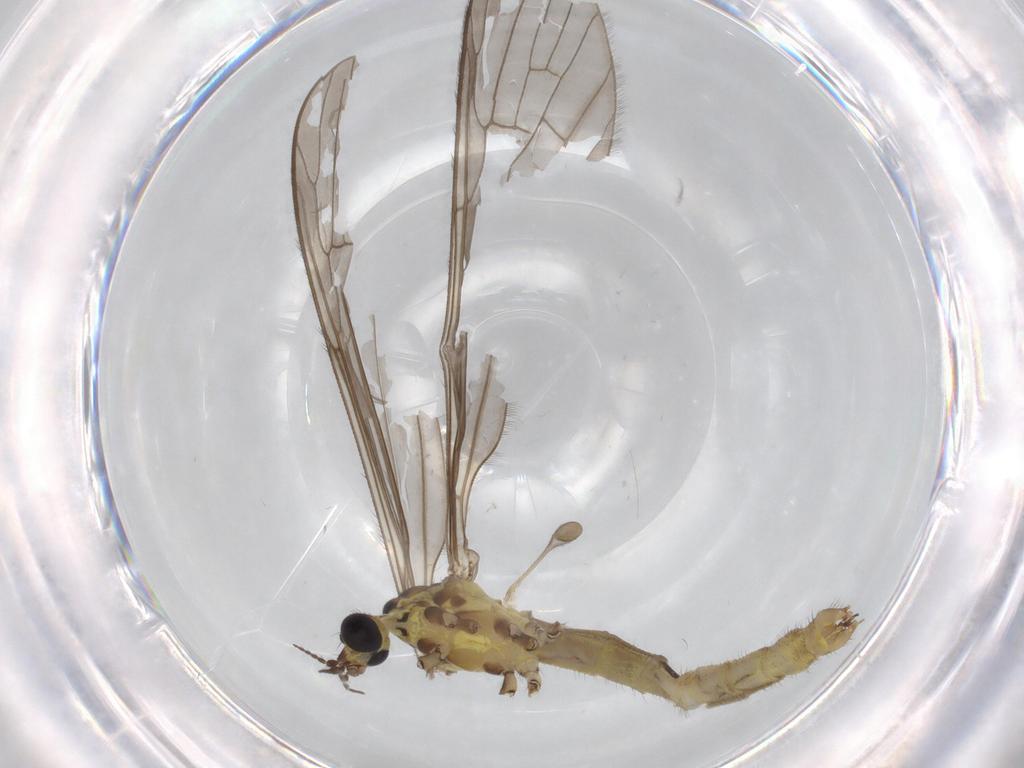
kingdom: Animalia
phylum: Arthropoda
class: Insecta
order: Diptera
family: Sciaridae
